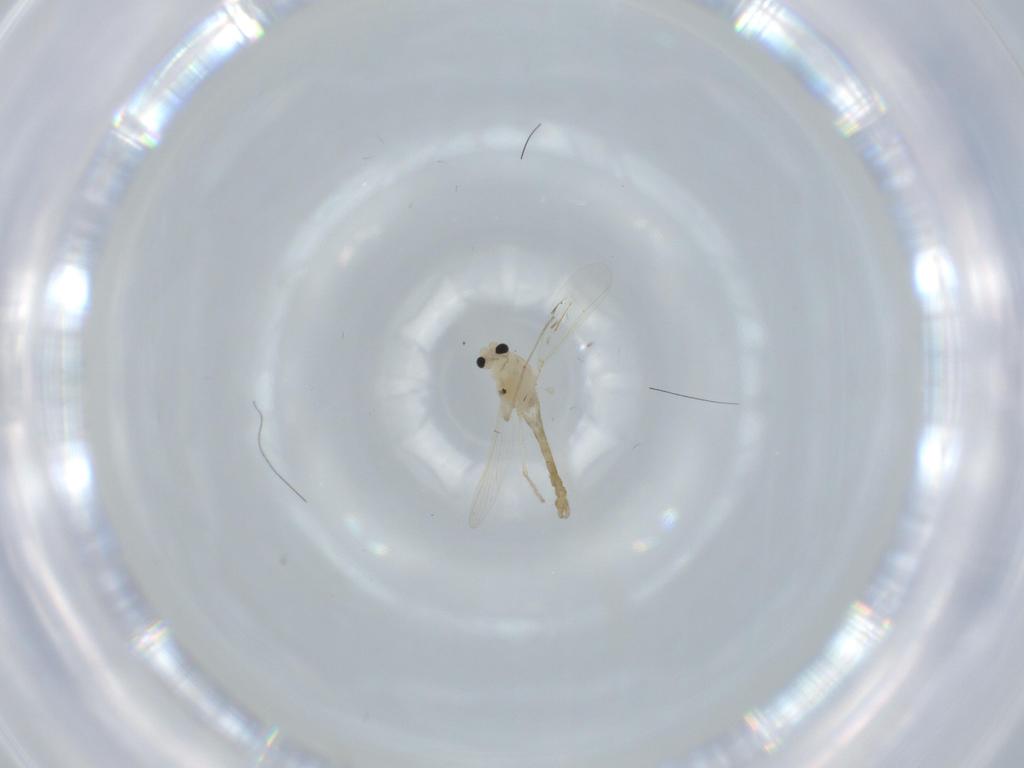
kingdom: Animalia
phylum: Arthropoda
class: Insecta
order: Diptera
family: Chironomidae
